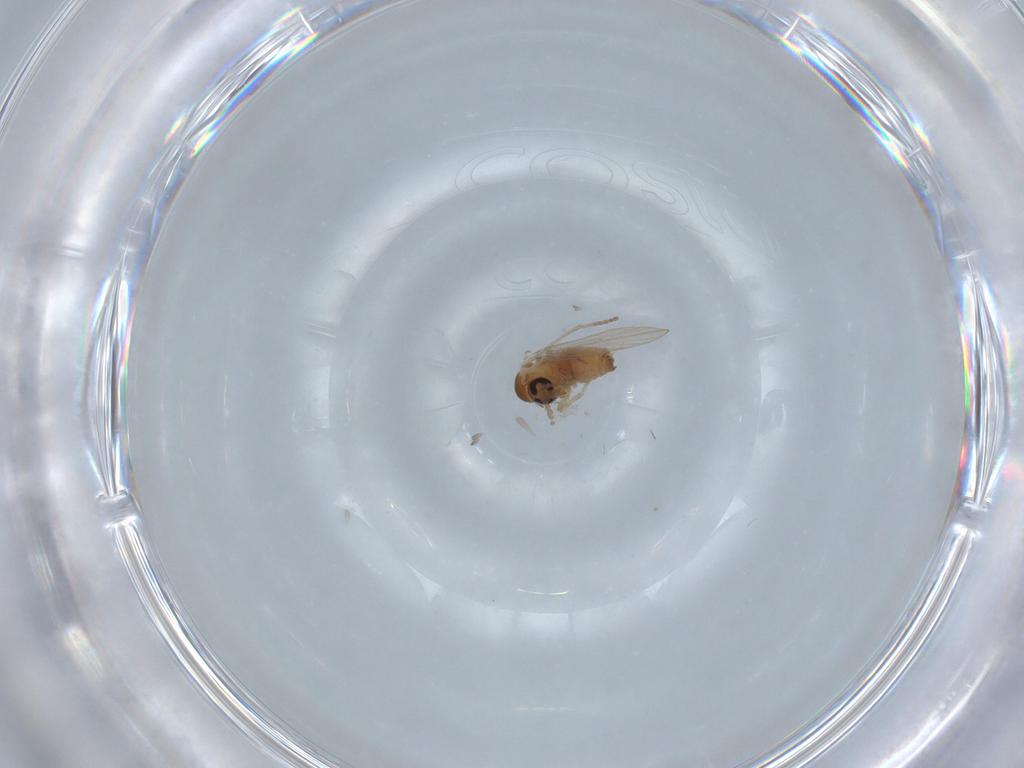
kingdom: Animalia
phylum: Arthropoda
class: Insecta
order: Diptera
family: Psychodidae
